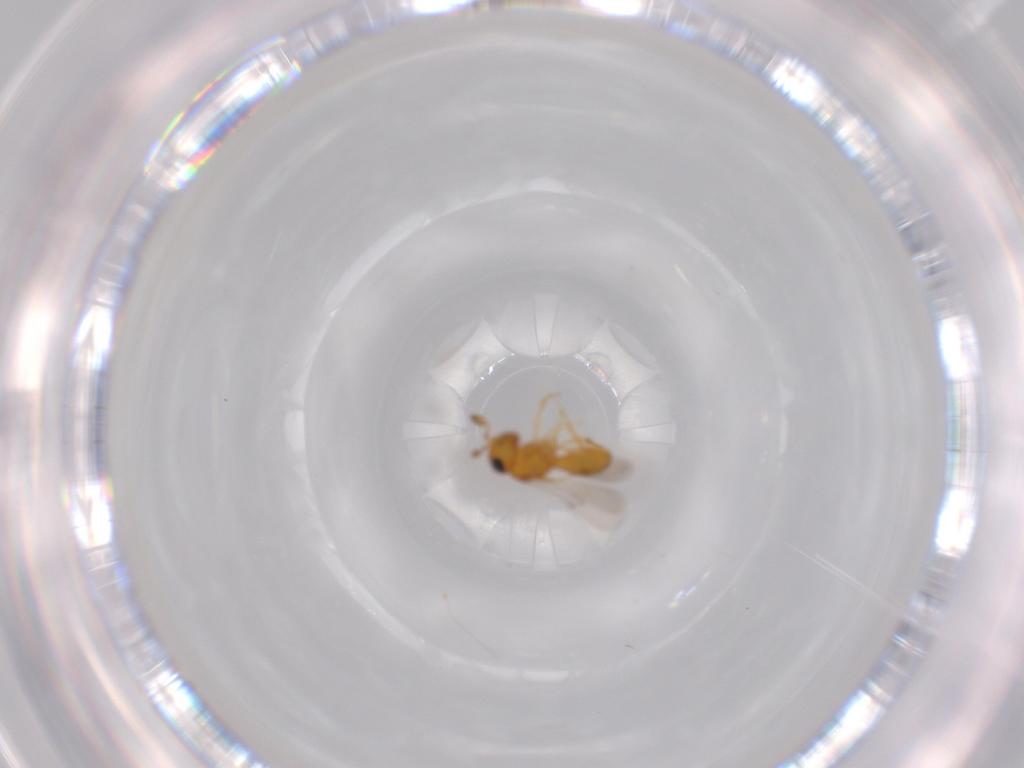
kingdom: Animalia
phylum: Arthropoda
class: Insecta
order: Hymenoptera
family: Scelionidae
